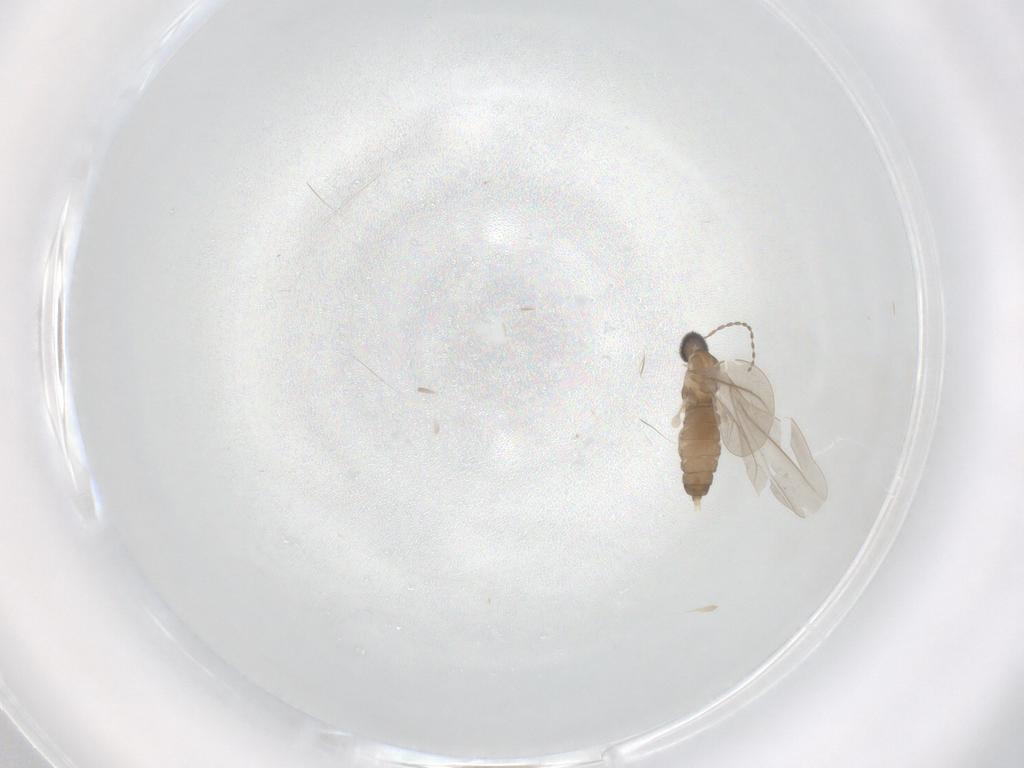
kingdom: Animalia
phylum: Arthropoda
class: Insecta
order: Diptera
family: Cecidomyiidae
